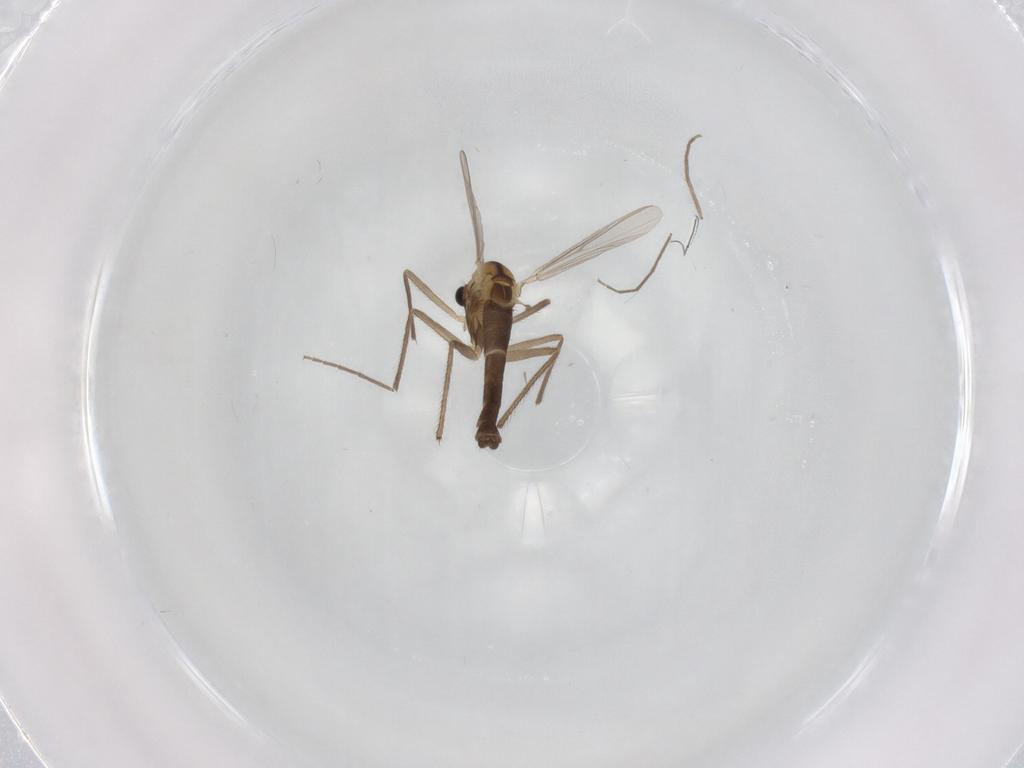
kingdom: Animalia
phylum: Arthropoda
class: Insecta
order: Diptera
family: Chironomidae
